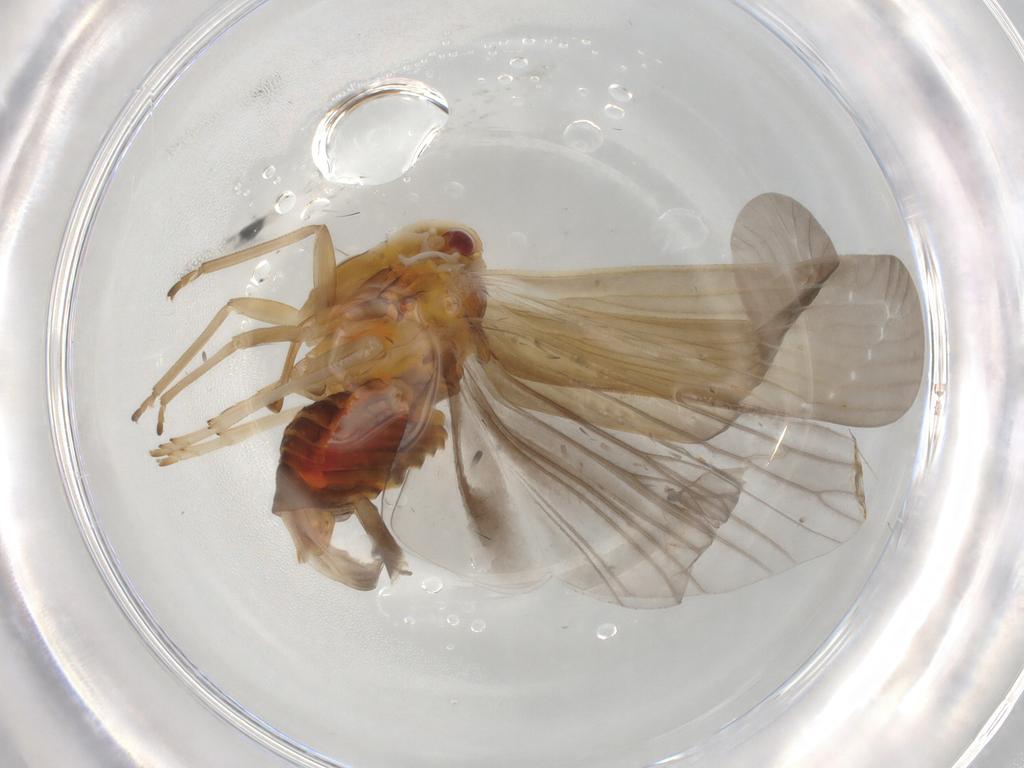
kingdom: Animalia
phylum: Arthropoda
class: Insecta
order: Hemiptera
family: Derbidae
